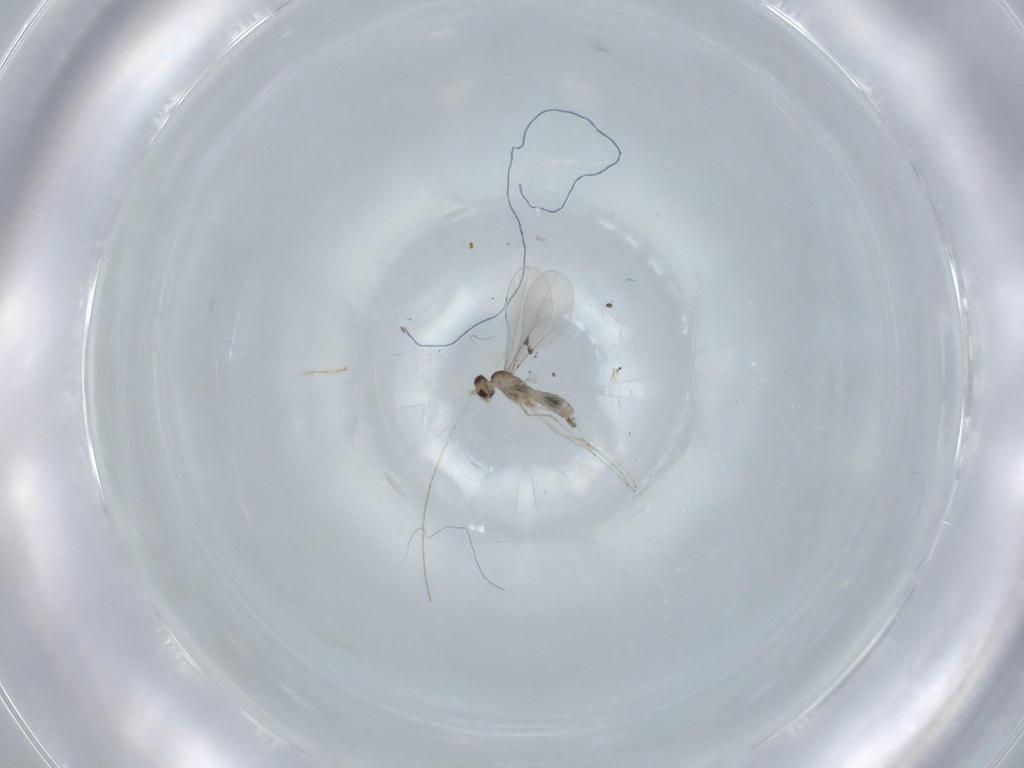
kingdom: Animalia
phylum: Arthropoda
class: Insecta
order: Diptera
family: Cecidomyiidae
